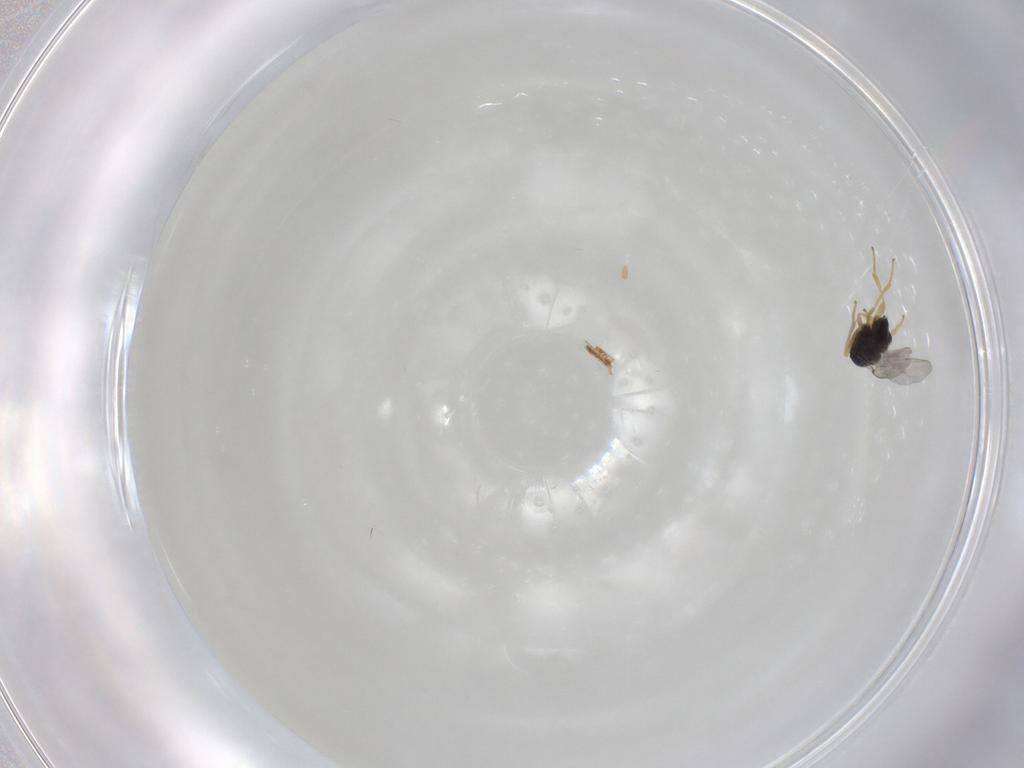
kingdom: Animalia
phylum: Arthropoda
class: Insecta
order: Hymenoptera
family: Encyrtidae
